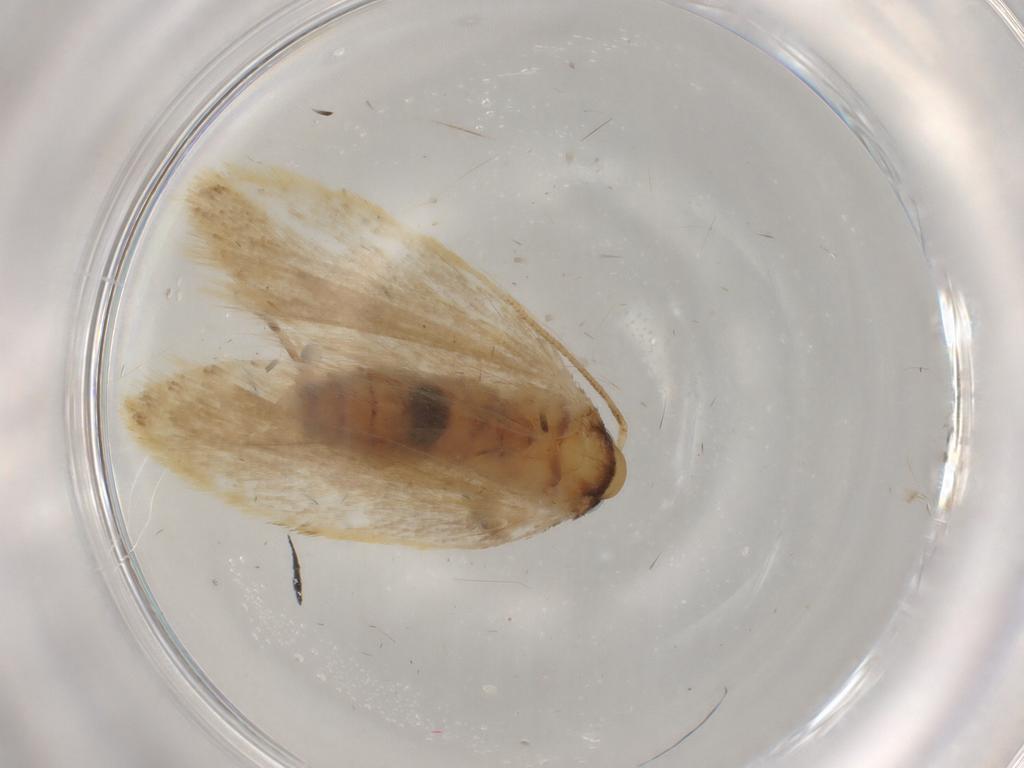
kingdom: Animalia
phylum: Arthropoda
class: Insecta
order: Lepidoptera
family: Depressariidae
